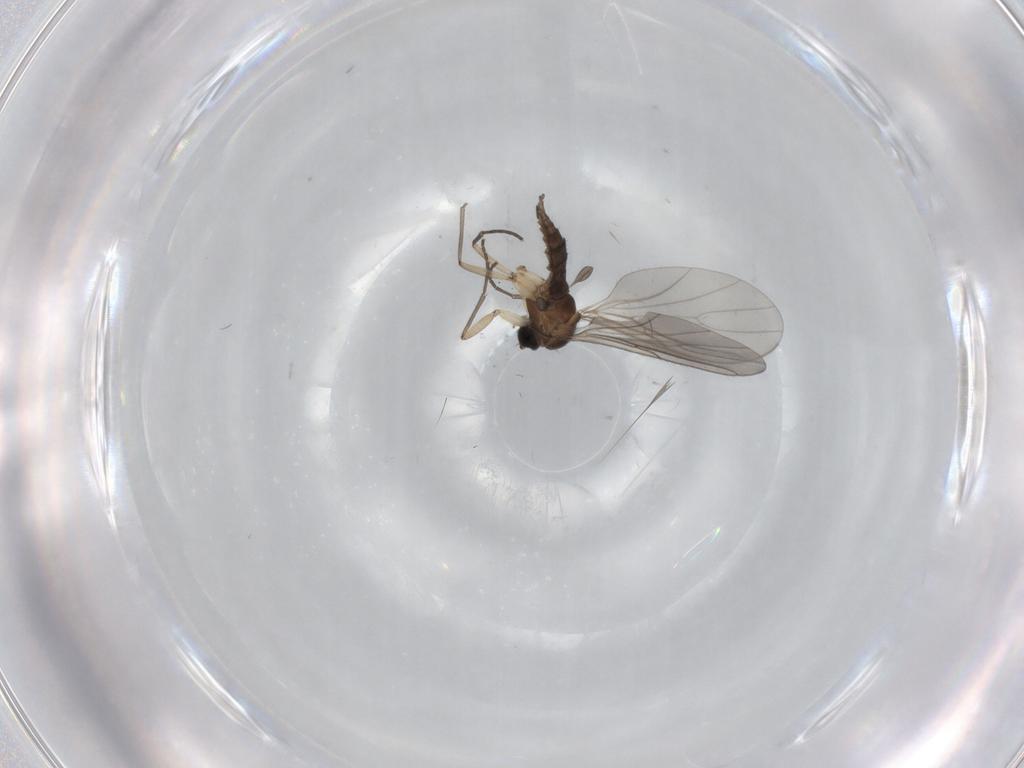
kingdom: Animalia
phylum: Arthropoda
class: Insecta
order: Diptera
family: Sciaridae
